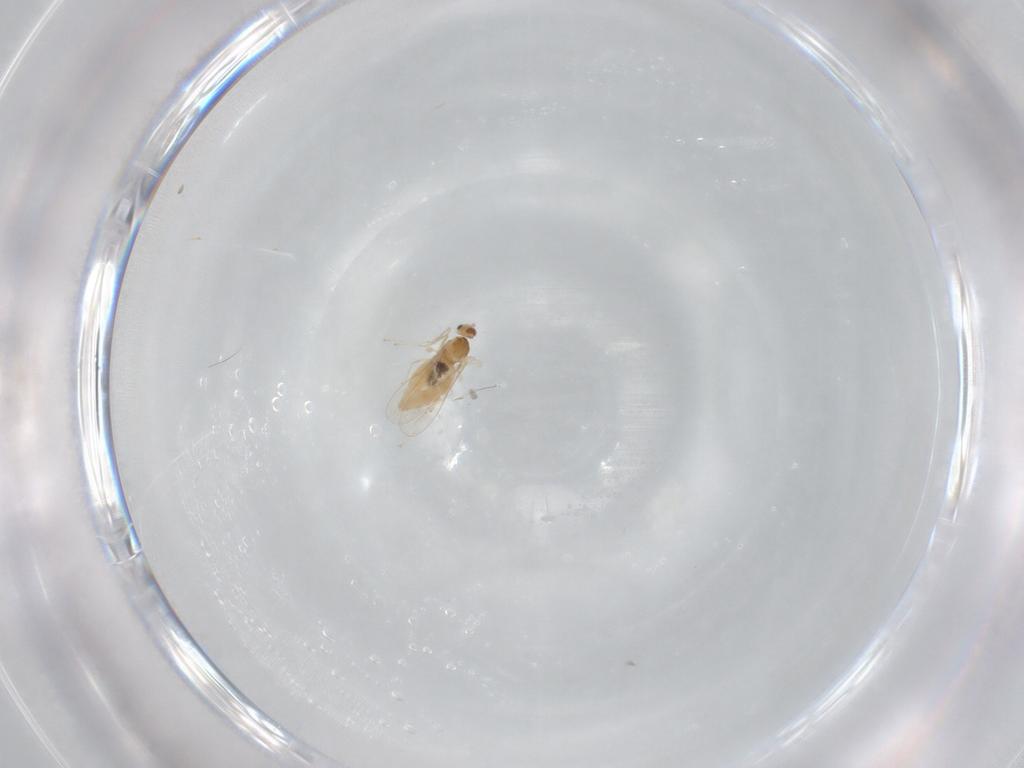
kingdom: Animalia
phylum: Arthropoda
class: Insecta
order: Diptera
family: Cecidomyiidae
